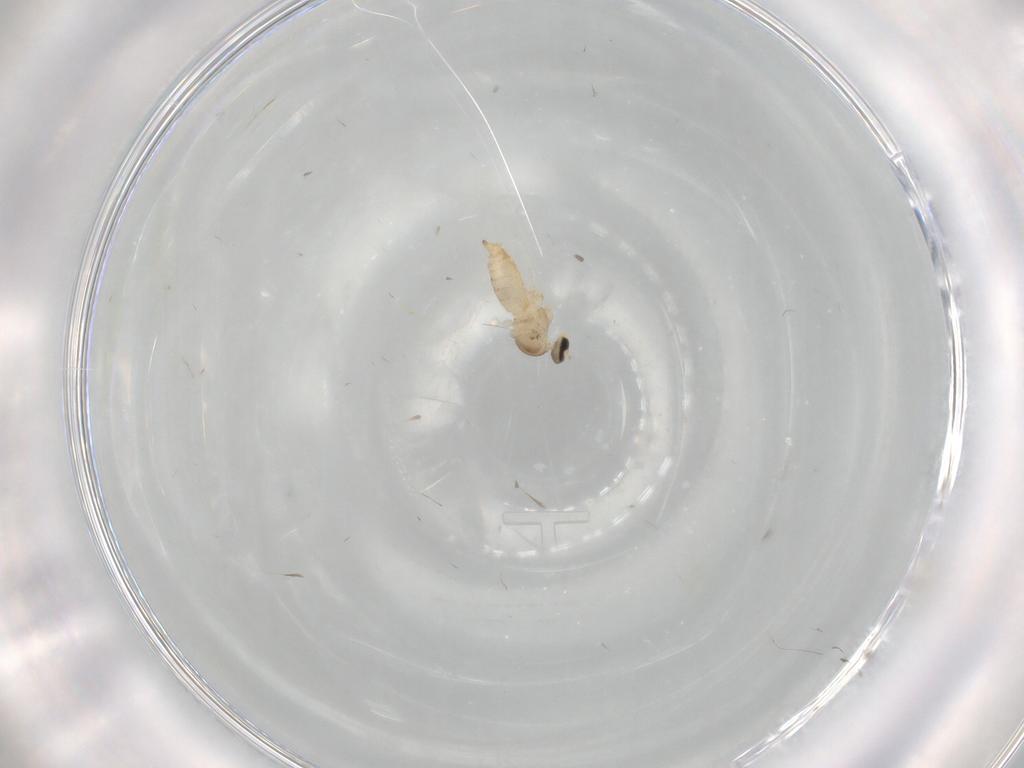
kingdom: Animalia
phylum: Arthropoda
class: Insecta
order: Diptera
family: Cecidomyiidae
